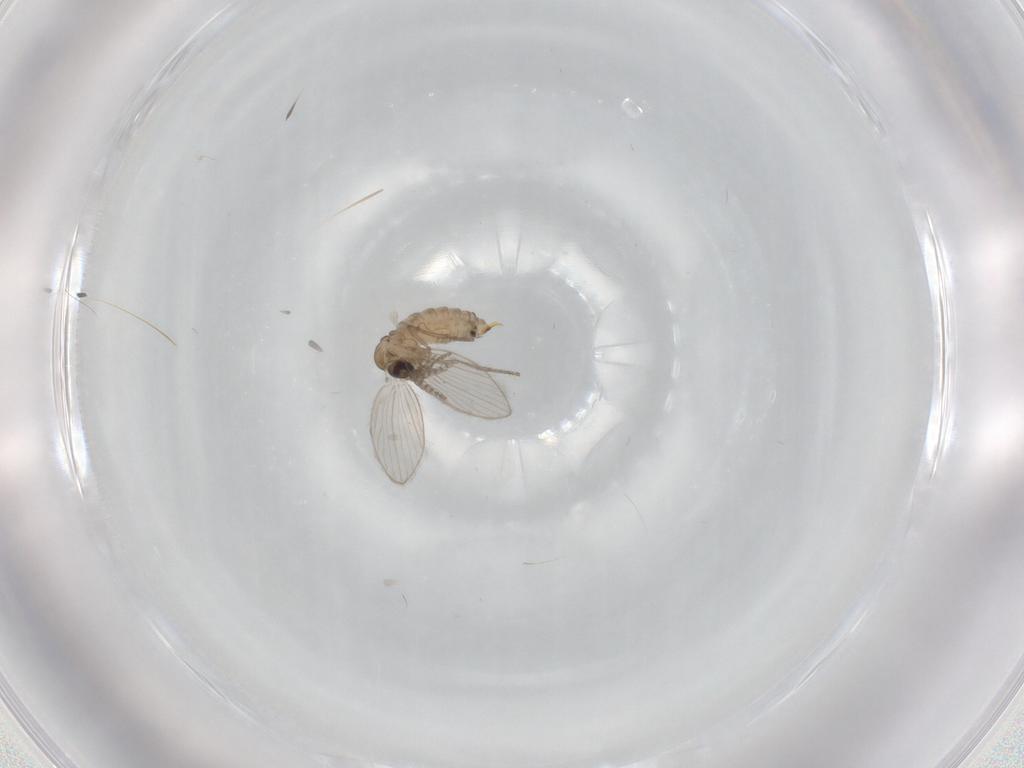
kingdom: Animalia
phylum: Arthropoda
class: Insecta
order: Diptera
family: Psychodidae
